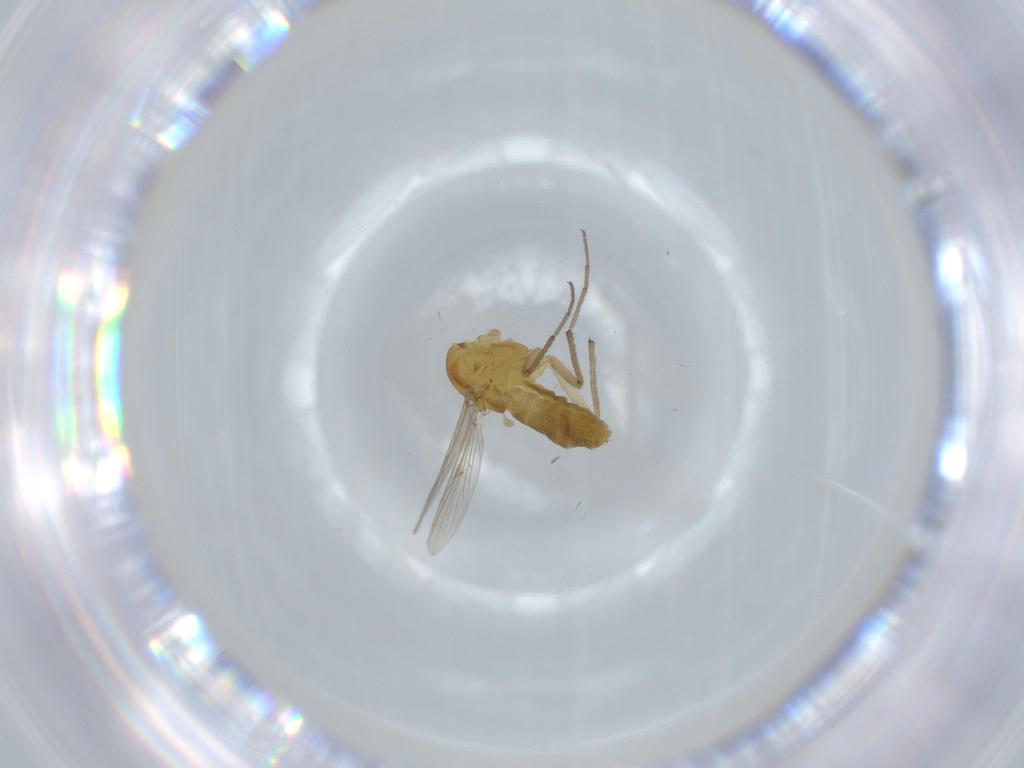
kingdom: Animalia
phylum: Arthropoda
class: Insecta
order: Diptera
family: Chironomidae
